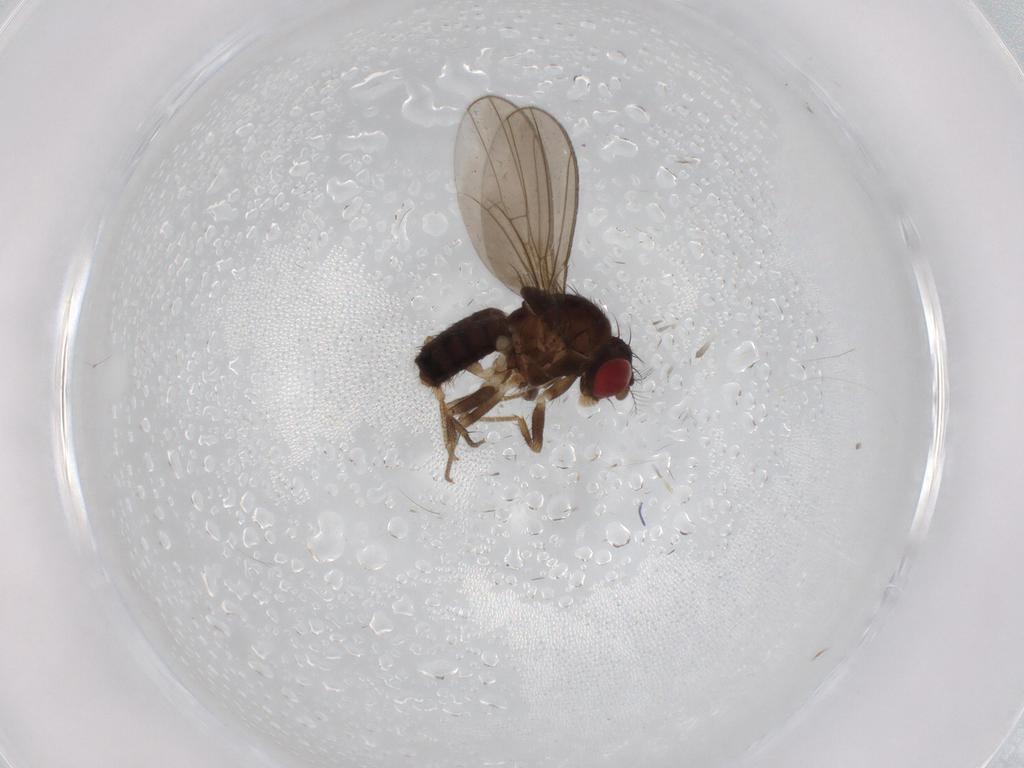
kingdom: Animalia
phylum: Arthropoda
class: Insecta
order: Diptera
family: Drosophilidae
